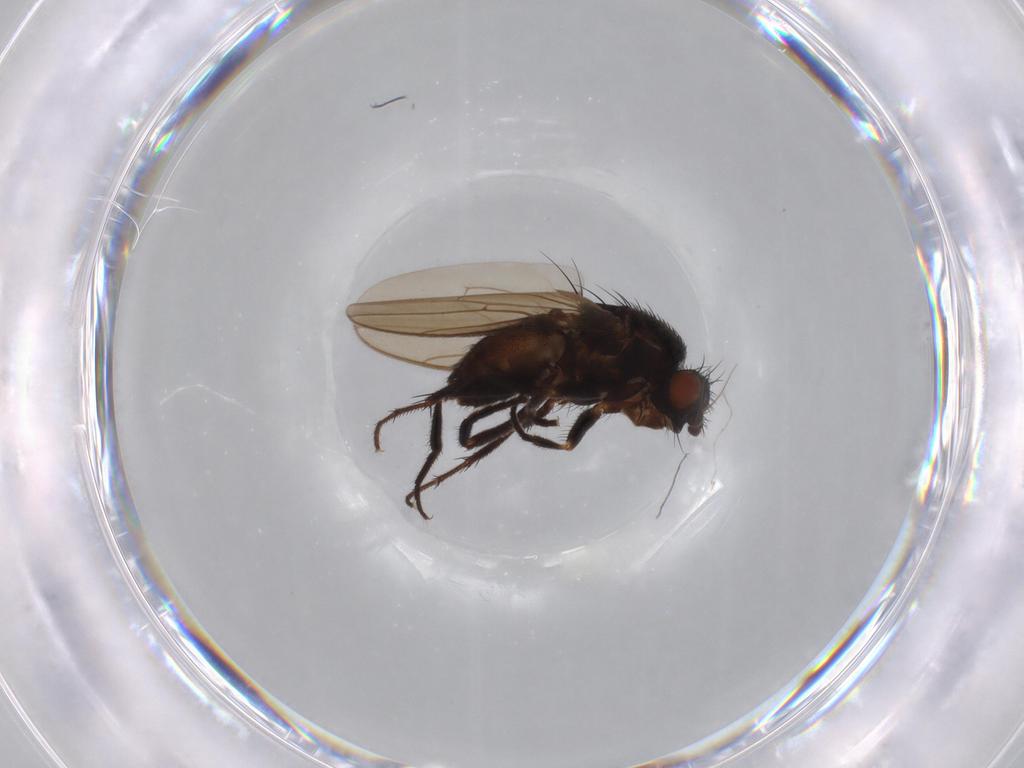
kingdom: Animalia
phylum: Arthropoda
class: Insecta
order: Diptera
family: Sphaeroceridae
